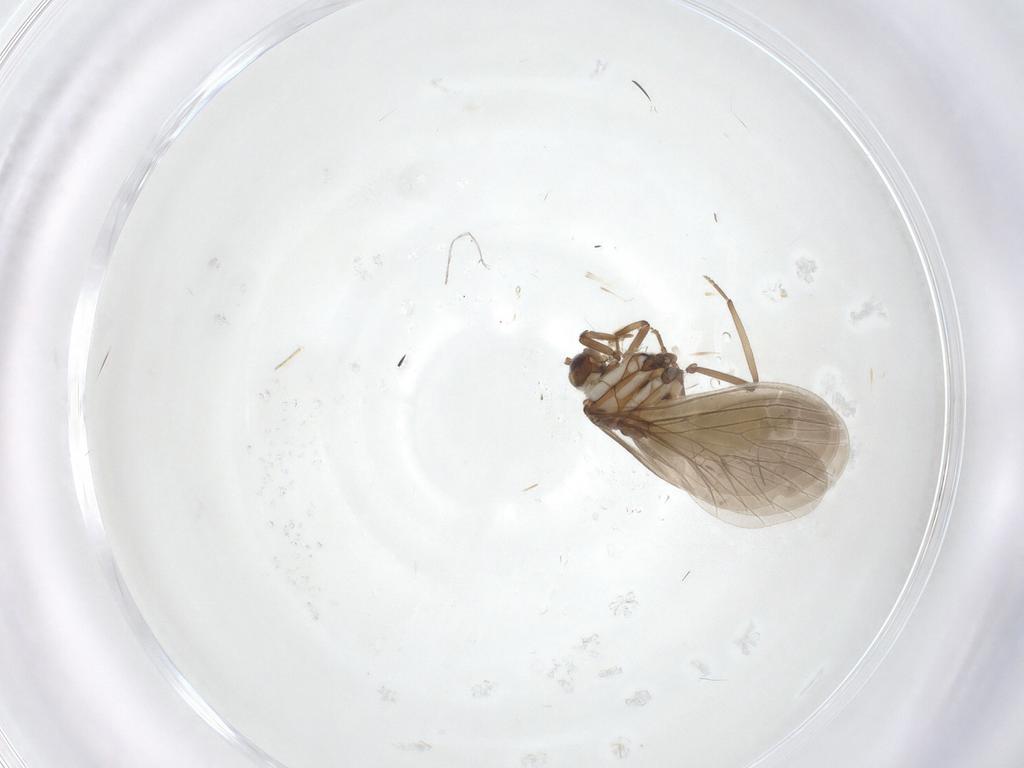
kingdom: Animalia
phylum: Arthropoda
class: Insecta
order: Neuroptera
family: Coniopterygidae
